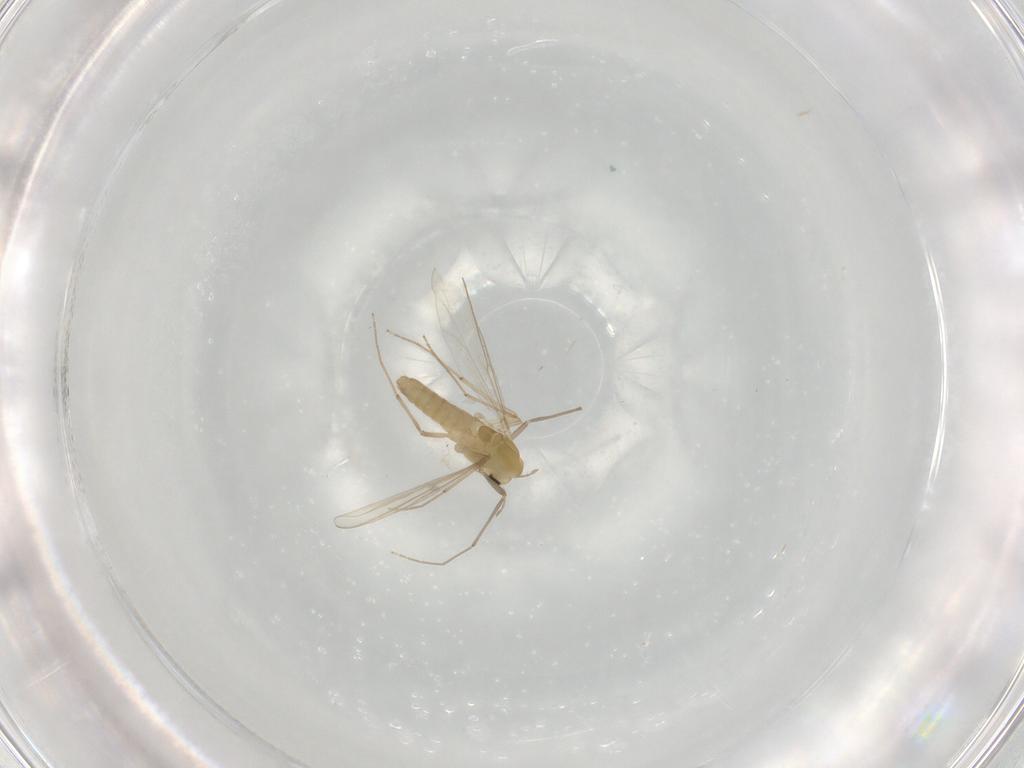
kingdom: Animalia
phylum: Arthropoda
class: Insecta
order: Diptera
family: Chironomidae
